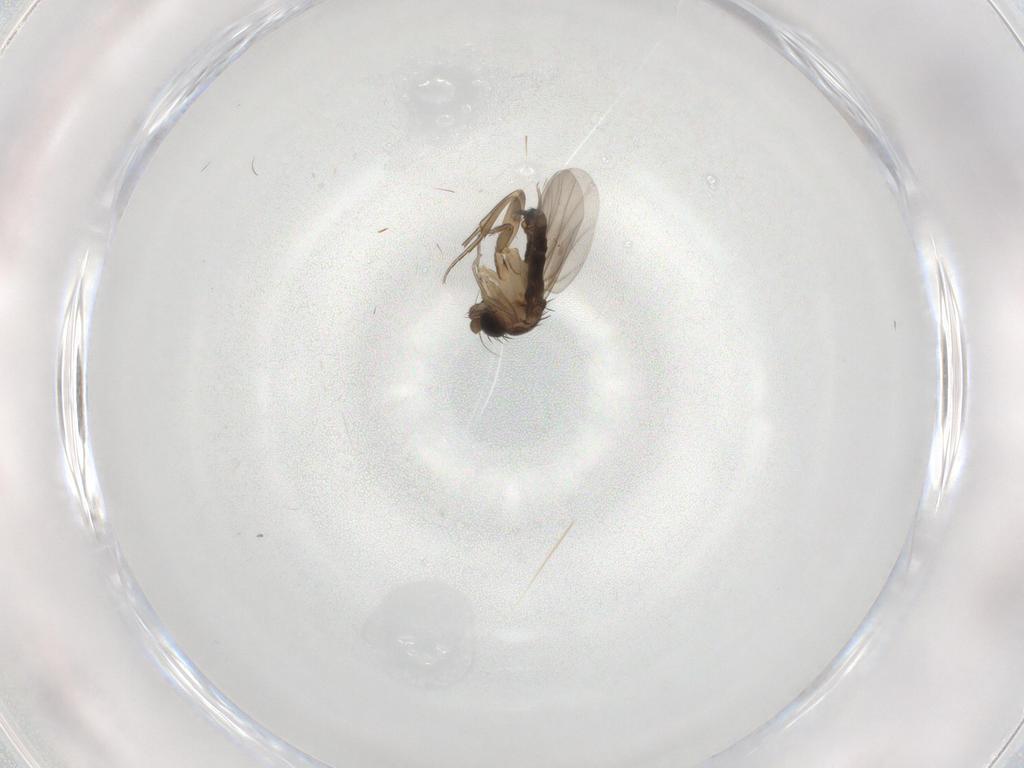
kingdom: Animalia
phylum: Arthropoda
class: Insecta
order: Diptera
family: Phoridae
